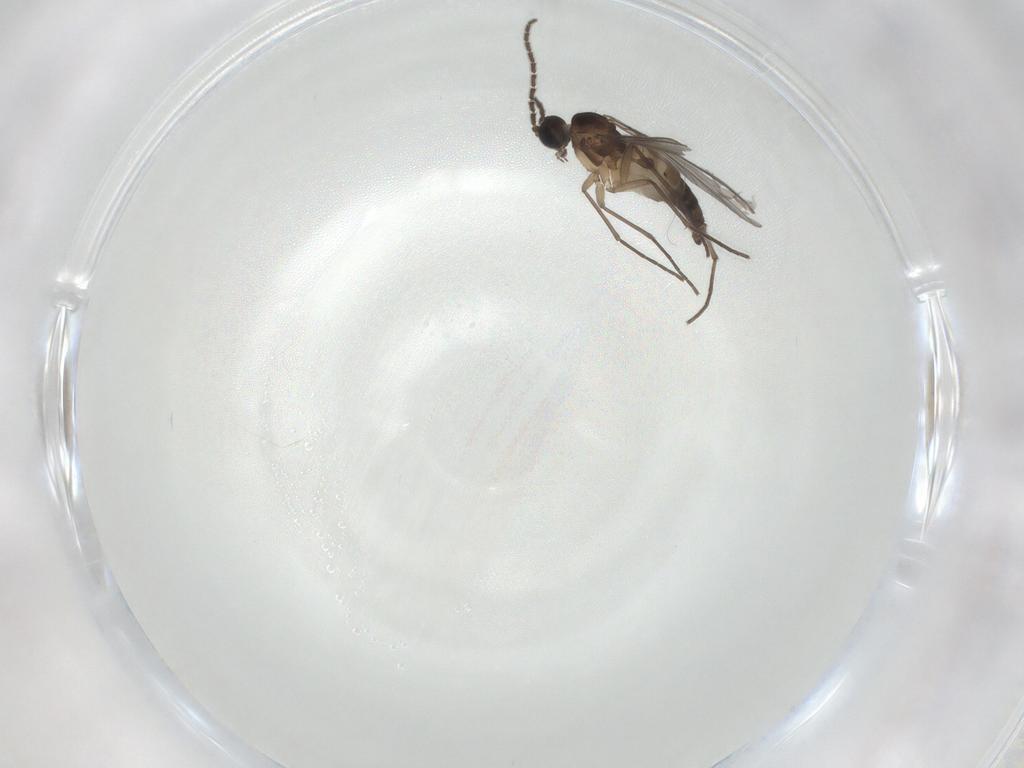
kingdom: Animalia
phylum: Arthropoda
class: Insecta
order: Diptera
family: Sciaridae
